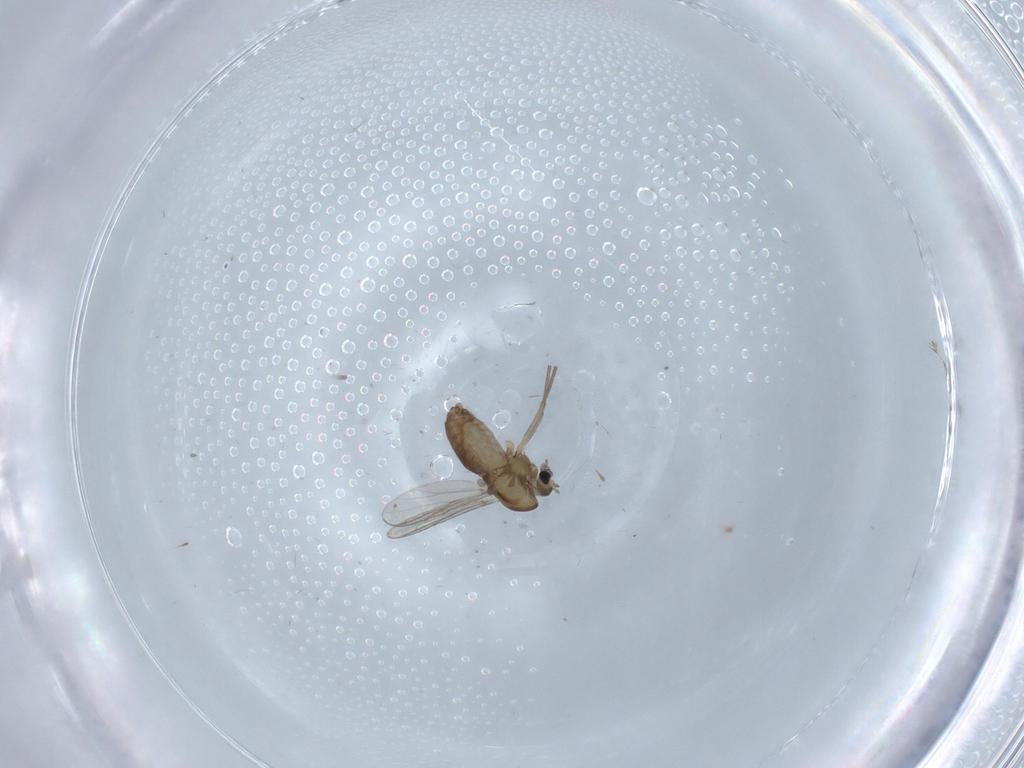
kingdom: Animalia
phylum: Arthropoda
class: Insecta
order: Diptera
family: Chironomidae
